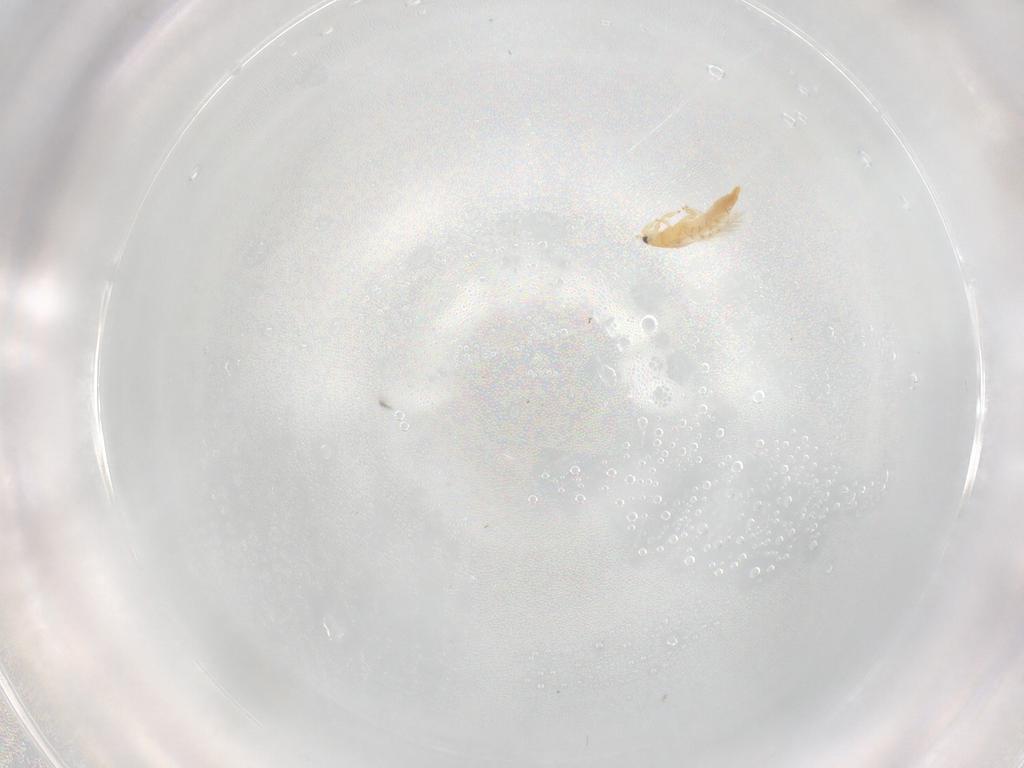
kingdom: Animalia
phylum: Arthropoda
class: Insecta
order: Thysanoptera
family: Thripidae
